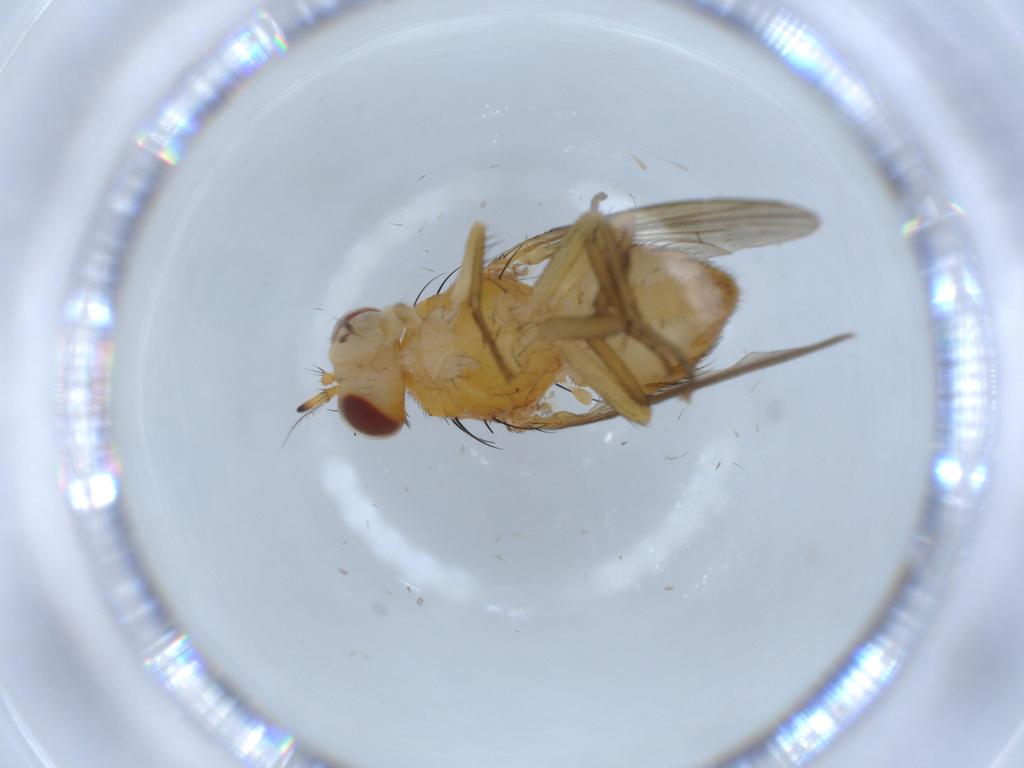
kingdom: Animalia
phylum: Arthropoda
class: Insecta
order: Diptera
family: Lauxaniidae
